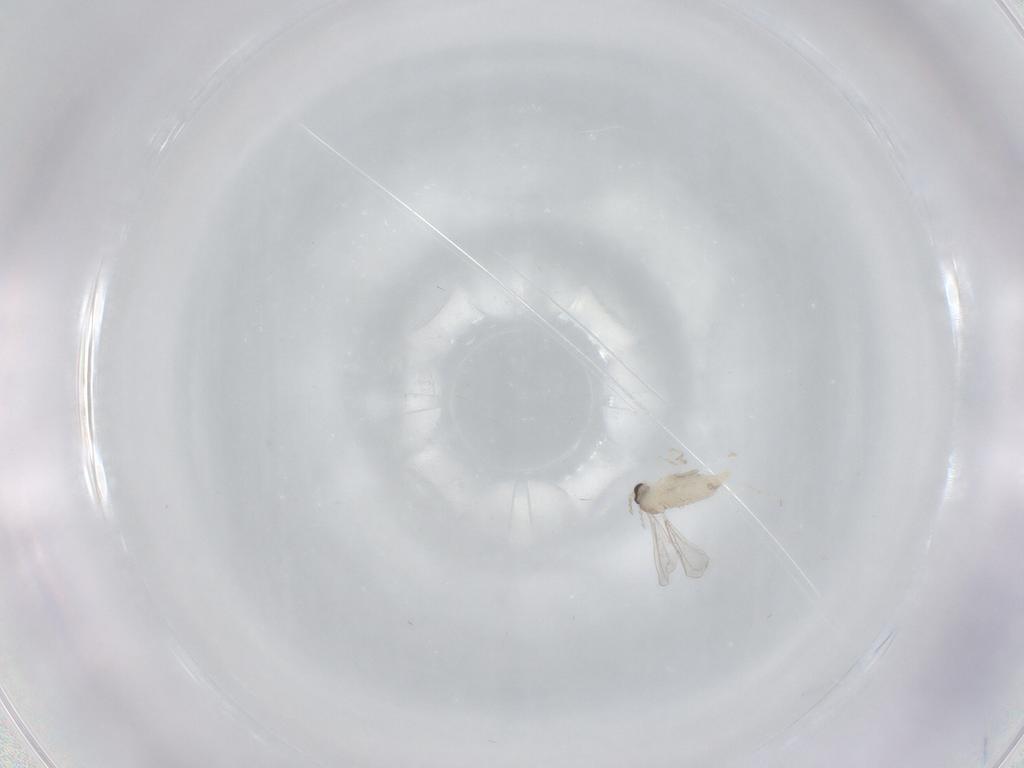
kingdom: Animalia
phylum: Arthropoda
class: Insecta
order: Diptera
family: Cecidomyiidae
